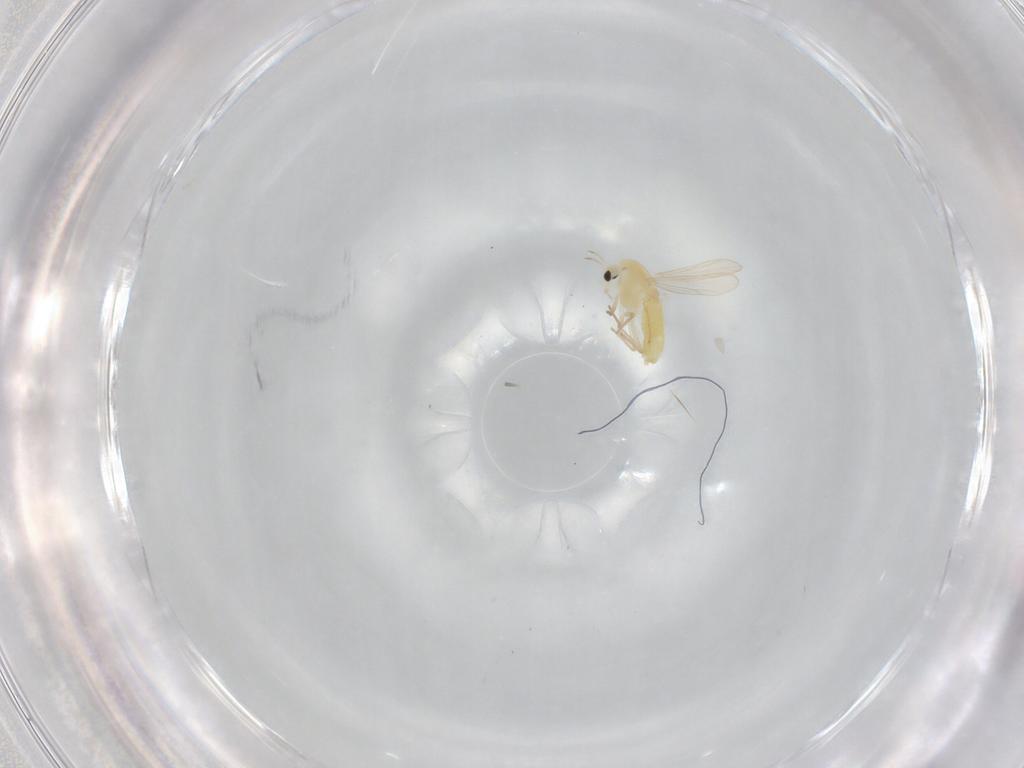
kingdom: Animalia
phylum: Arthropoda
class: Insecta
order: Diptera
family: Chironomidae
